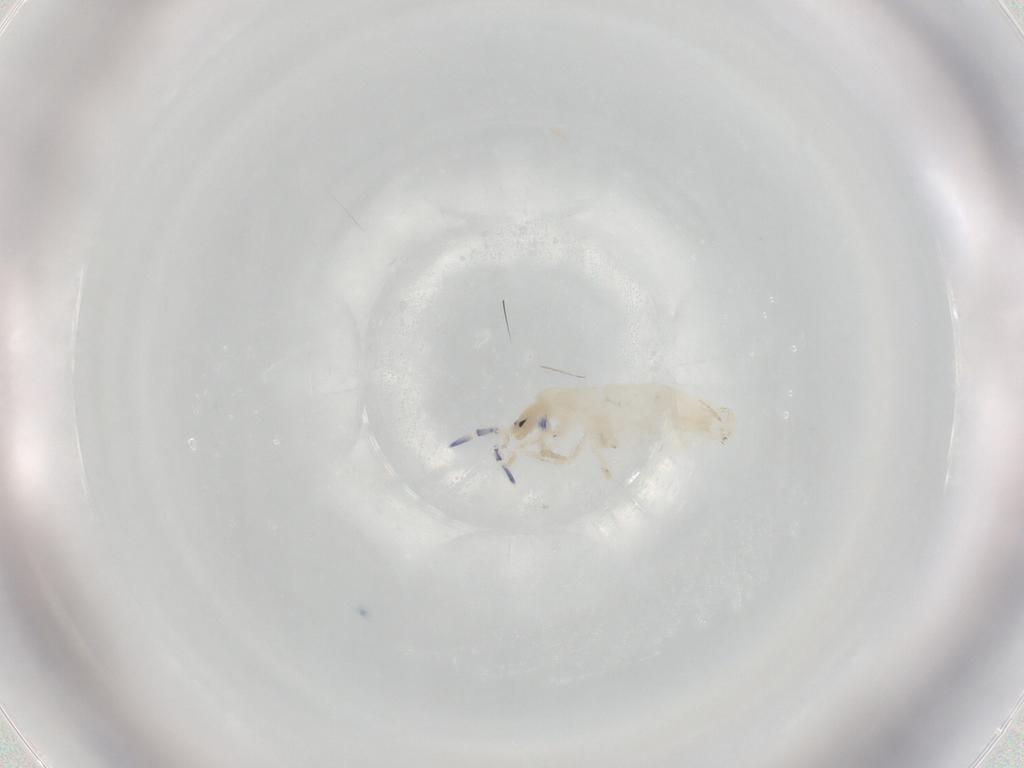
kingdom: Animalia
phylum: Arthropoda
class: Collembola
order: Entomobryomorpha
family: Entomobryidae
